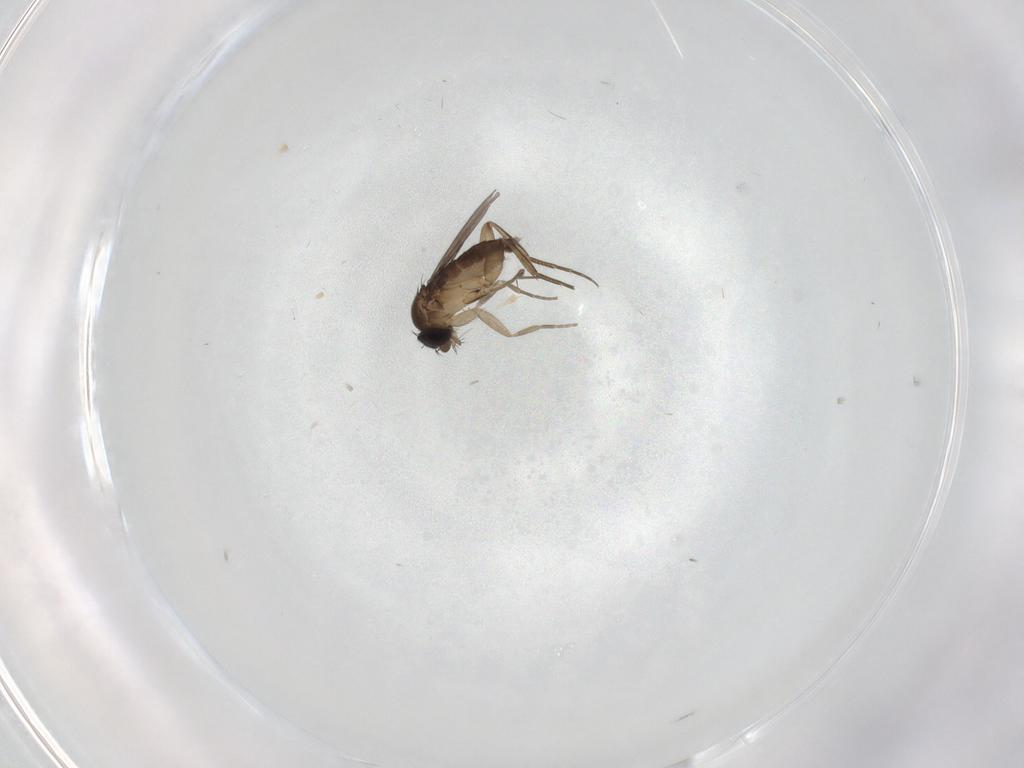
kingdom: Animalia
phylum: Arthropoda
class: Insecta
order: Diptera
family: Phoridae
